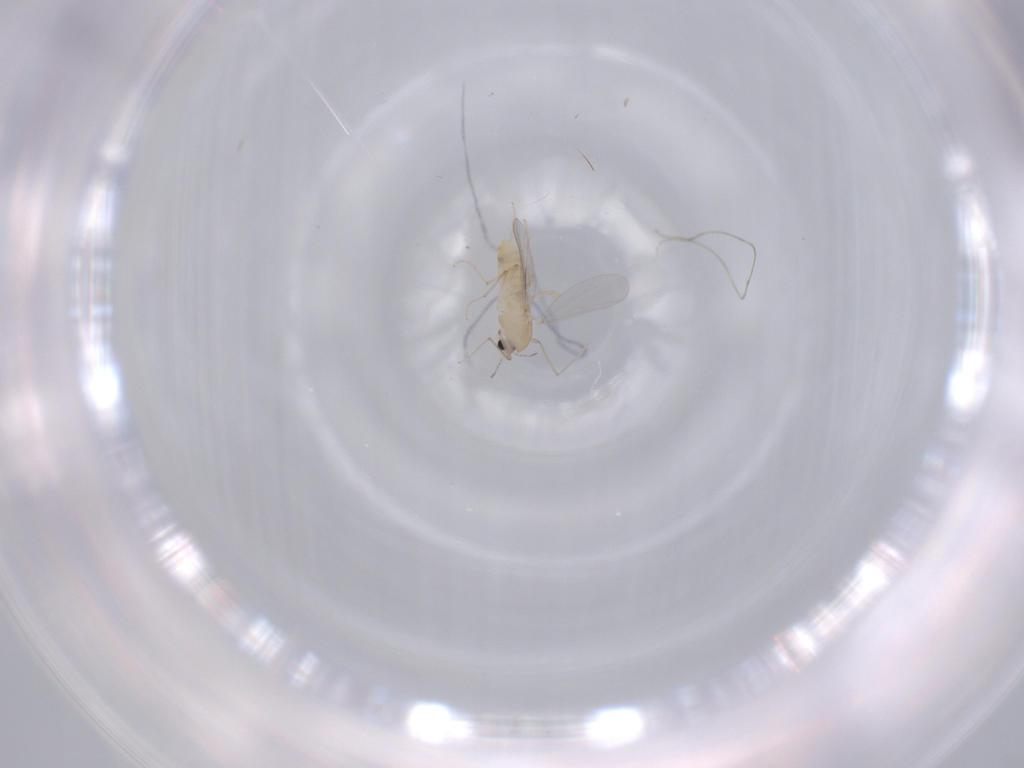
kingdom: Animalia
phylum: Arthropoda
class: Insecta
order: Diptera
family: Chironomidae
